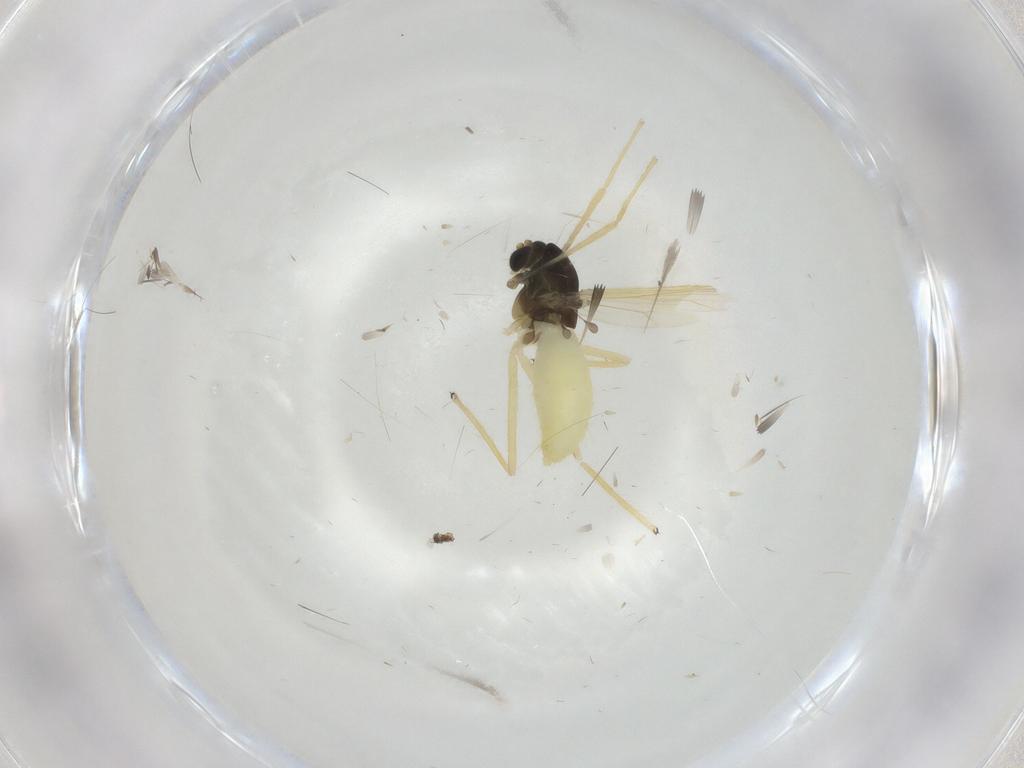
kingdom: Animalia
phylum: Arthropoda
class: Insecta
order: Diptera
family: Chironomidae
